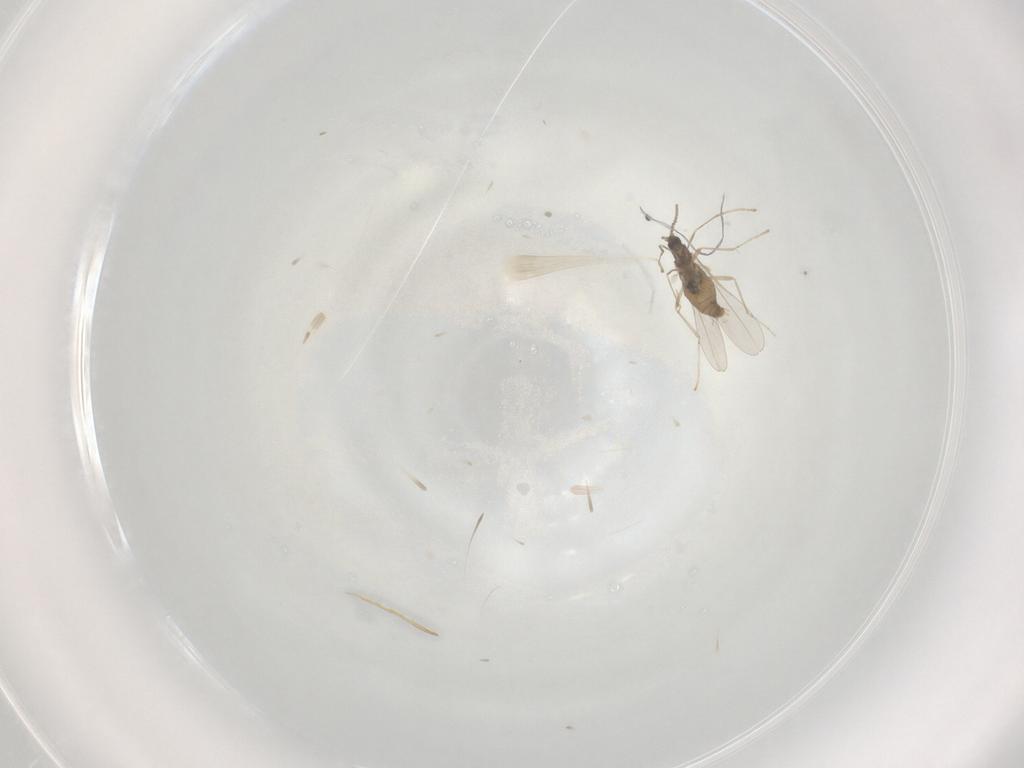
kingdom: Animalia
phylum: Arthropoda
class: Insecta
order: Diptera
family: Cecidomyiidae
